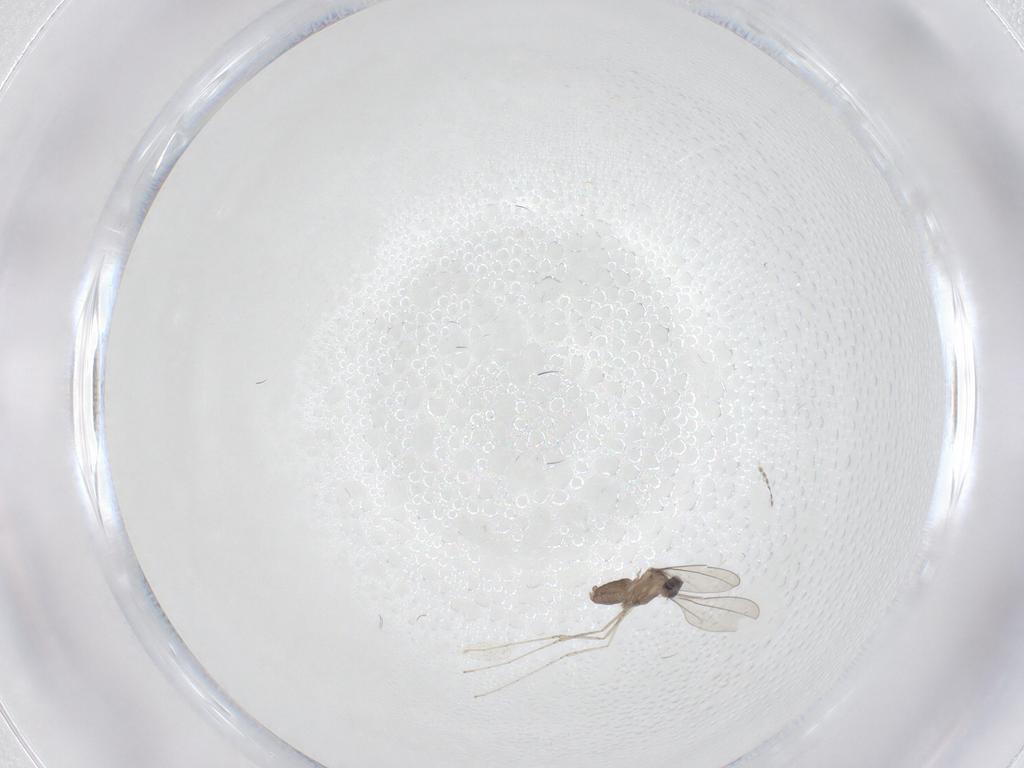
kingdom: Animalia
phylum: Arthropoda
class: Insecta
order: Diptera
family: Cecidomyiidae
